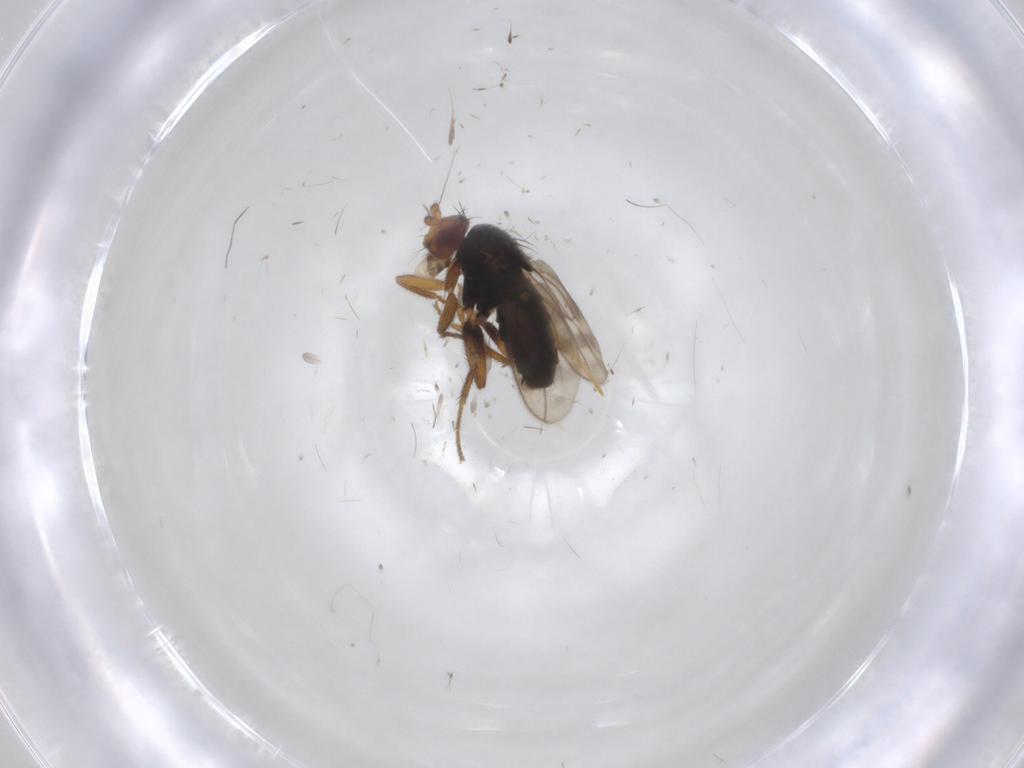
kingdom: Animalia
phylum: Arthropoda
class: Insecta
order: Diptera
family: Sphaeroceridae
